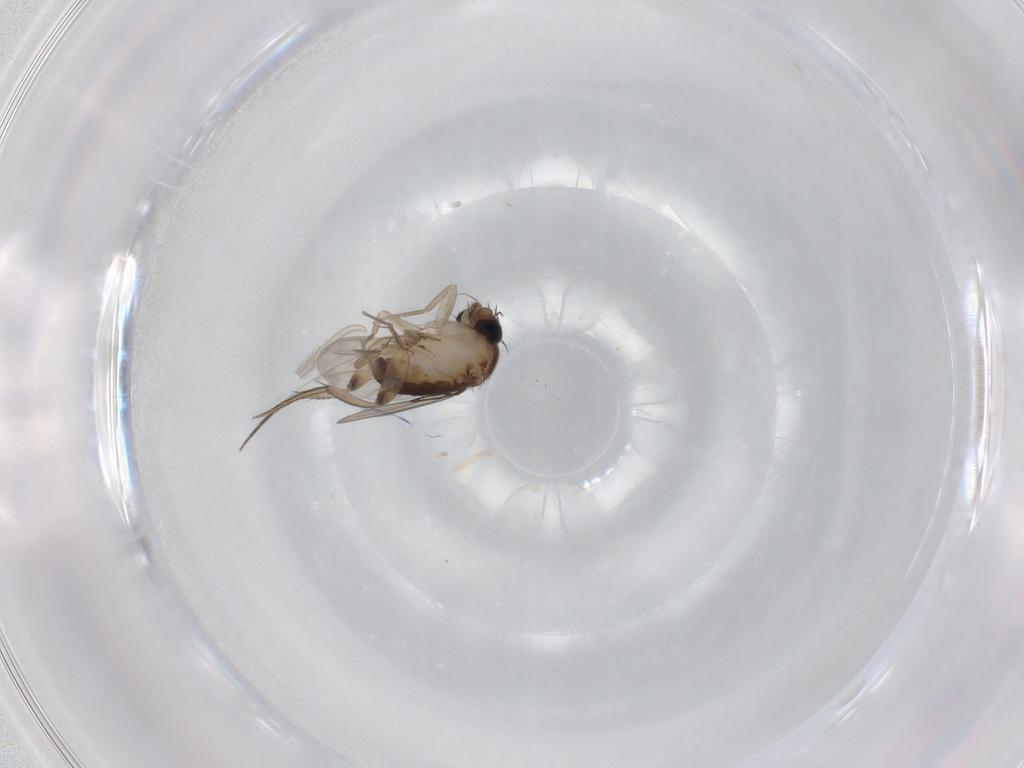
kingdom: Animalia
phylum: Arthropoda
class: Insecta
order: Diptera
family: Phoridae
